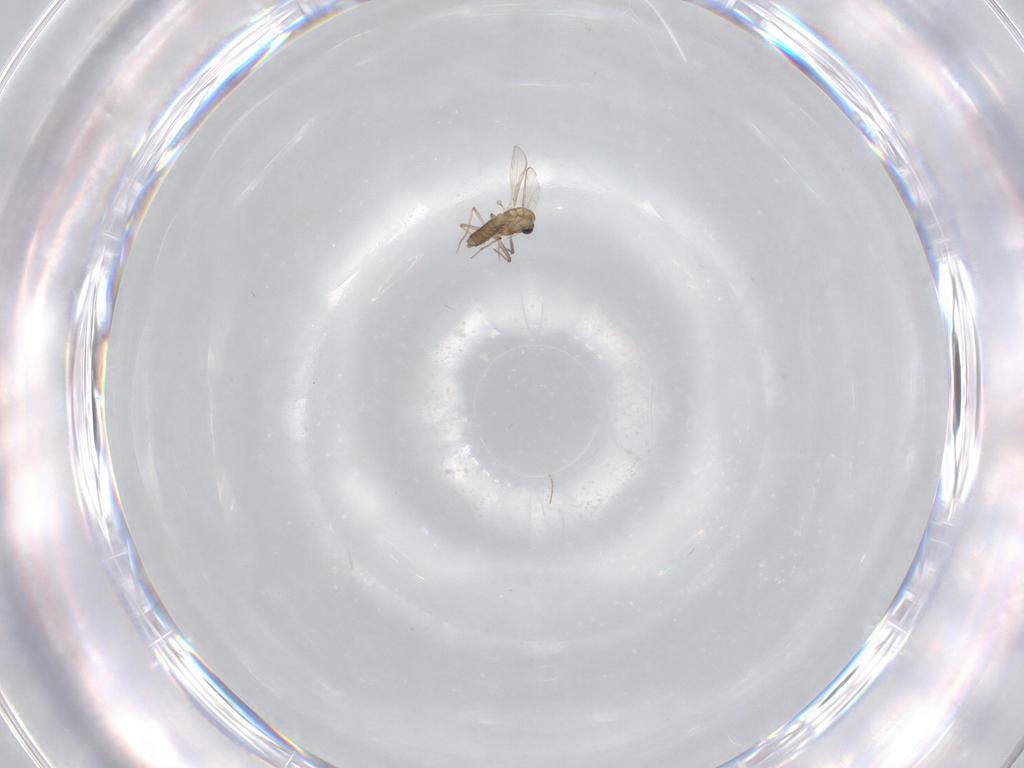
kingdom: Animalia
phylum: Arthropoda
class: Insecta
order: Diptera
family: Chironomidae
